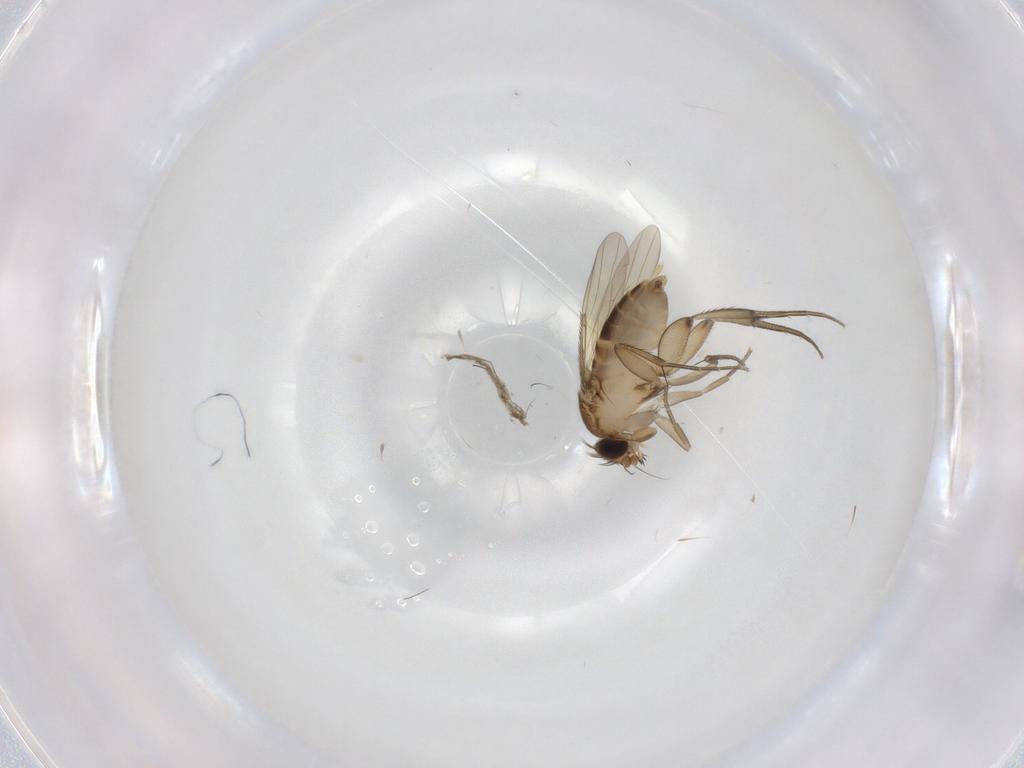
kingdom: Animalia
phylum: Arthropoda
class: Insecta
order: Diptera
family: Phoridae
